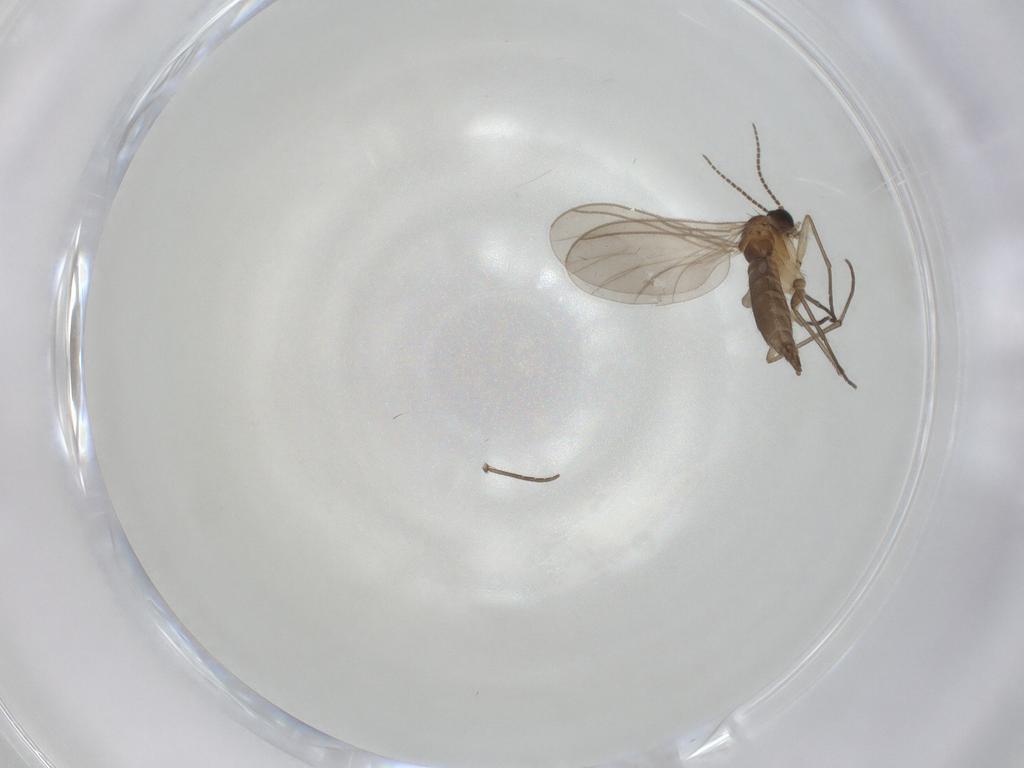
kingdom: Animalia
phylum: Arthropoda
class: Insecta
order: Diptera
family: Sciaridae
